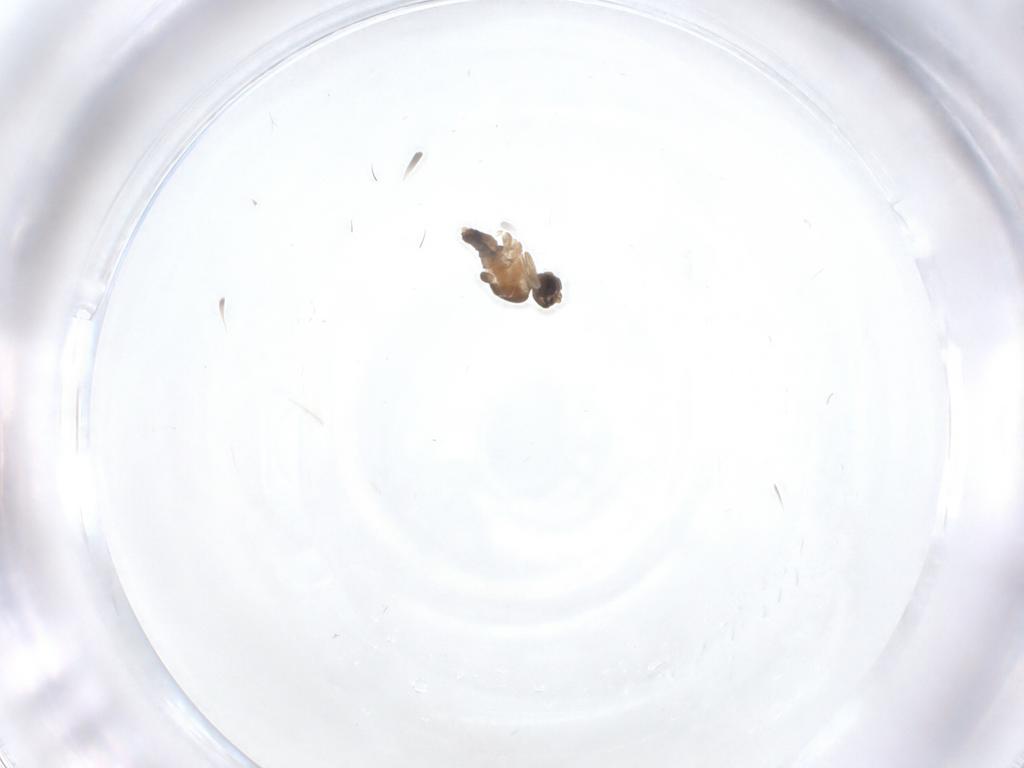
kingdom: Animalia
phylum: Arthropoda
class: Insecta
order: Diptera
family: Cecidomyiidae
